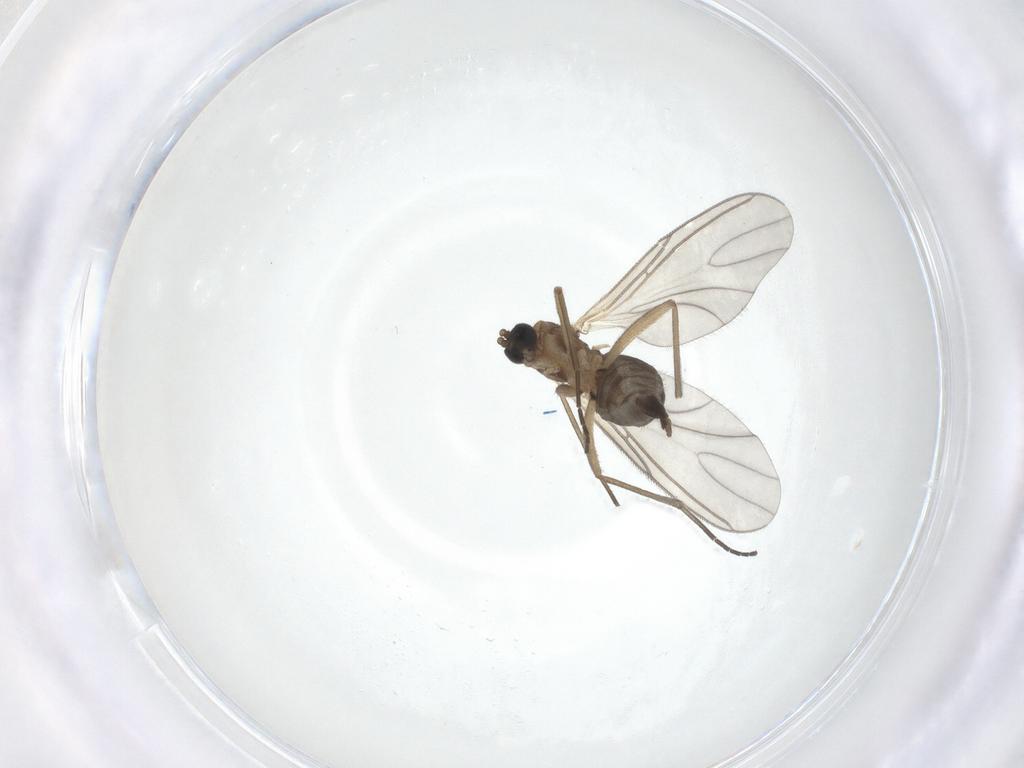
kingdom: Animalia
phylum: Arthropoda
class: Insecta
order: Diptera
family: Sciaridae
